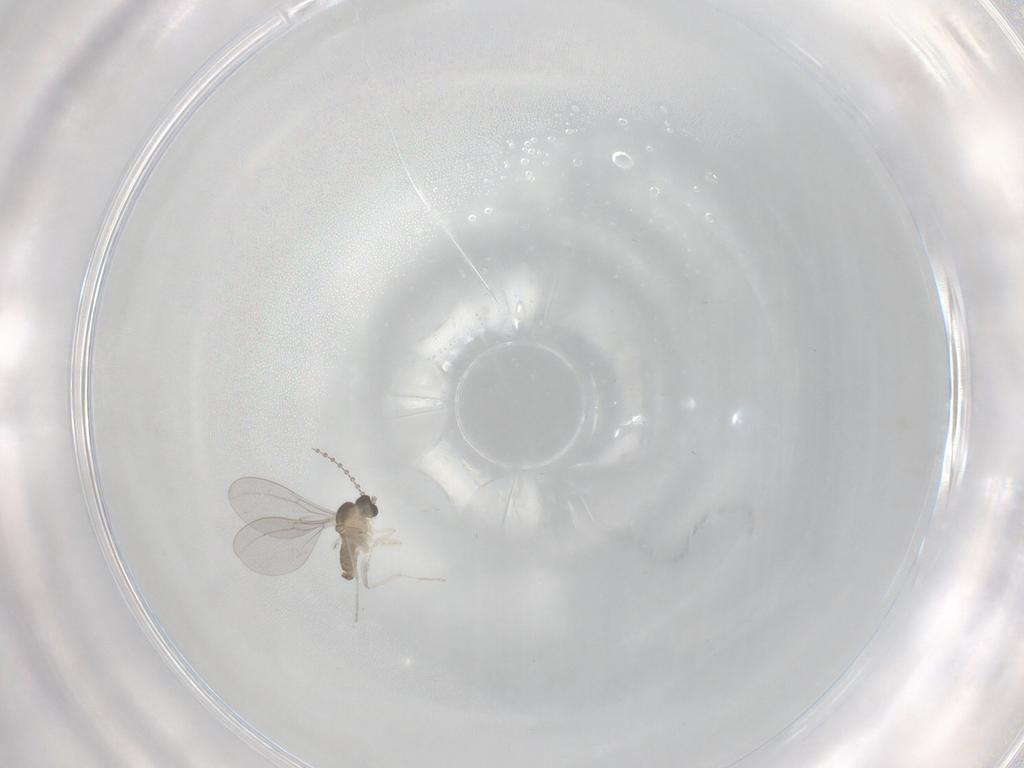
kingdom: Animalia
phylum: Arthropoda
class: Insecta
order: Diptera
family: Cecidomyiidae
